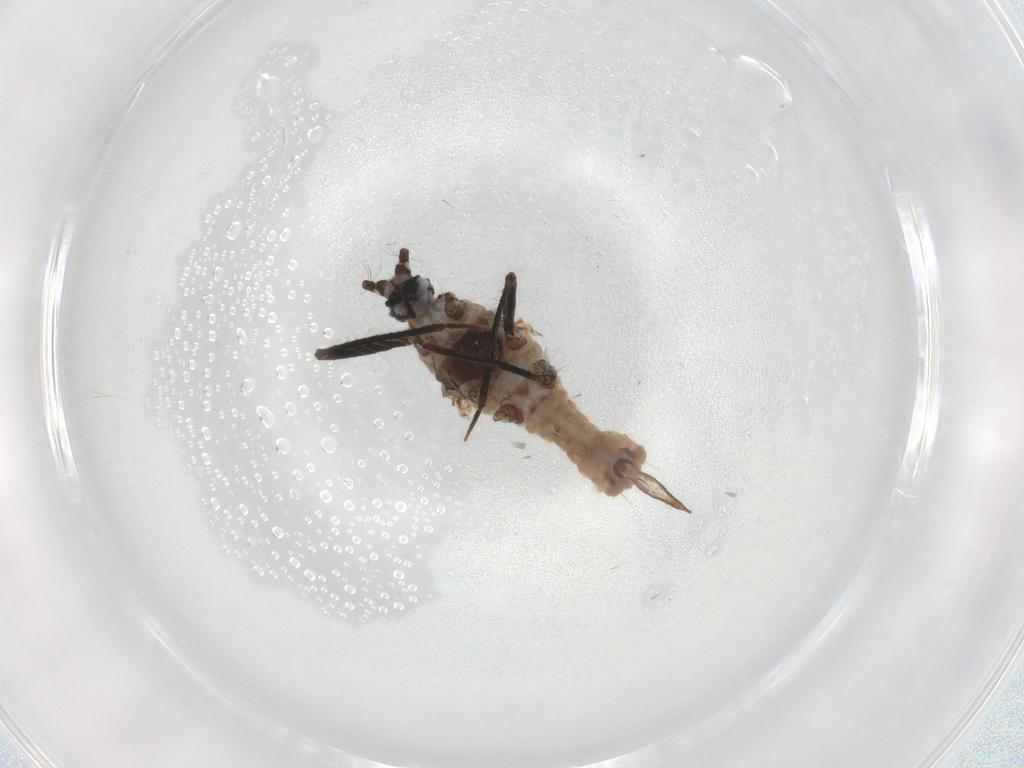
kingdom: Animalia
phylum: Arthropoda
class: Insecta
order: Hemiptera
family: Putoidae
